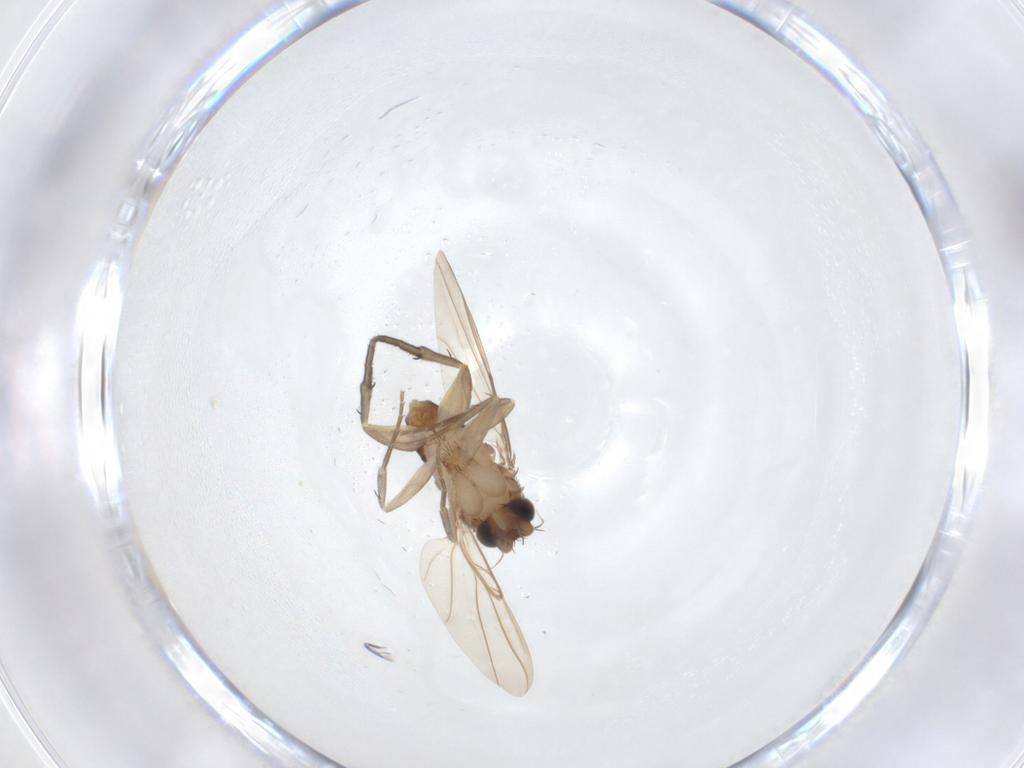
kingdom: Animalia
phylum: Arthropoda
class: Insecta
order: Diptera
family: Phoridae
